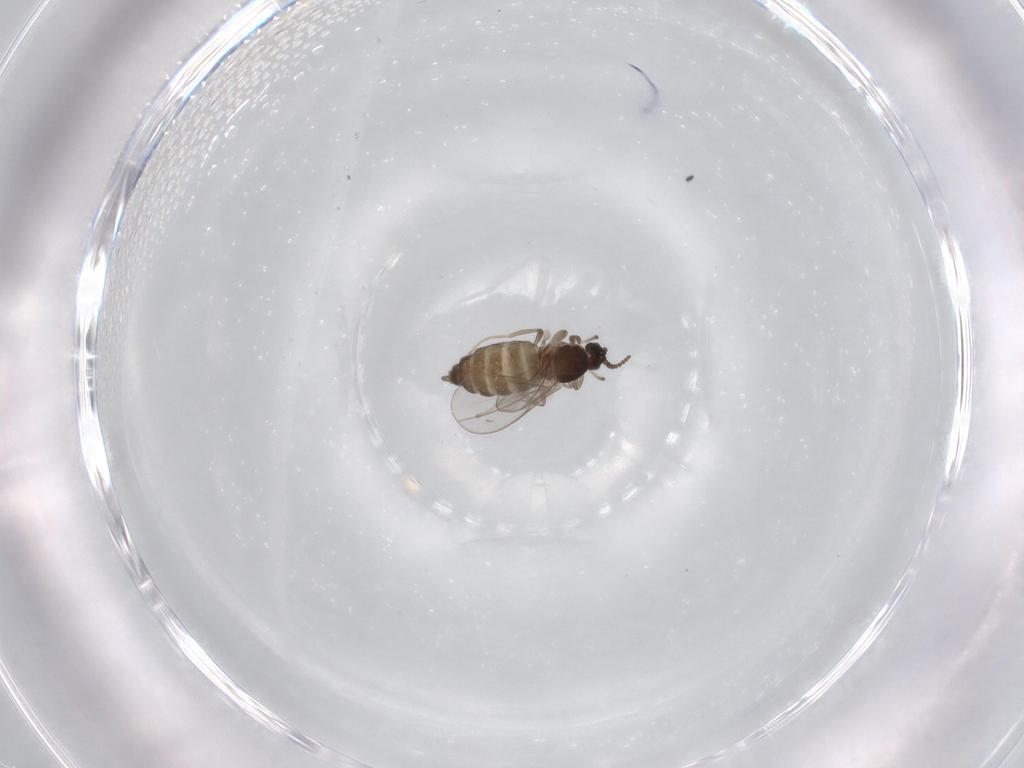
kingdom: Animalia
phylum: Arthropoda
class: Insecta
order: Diptera
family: Cecidomyiidae
